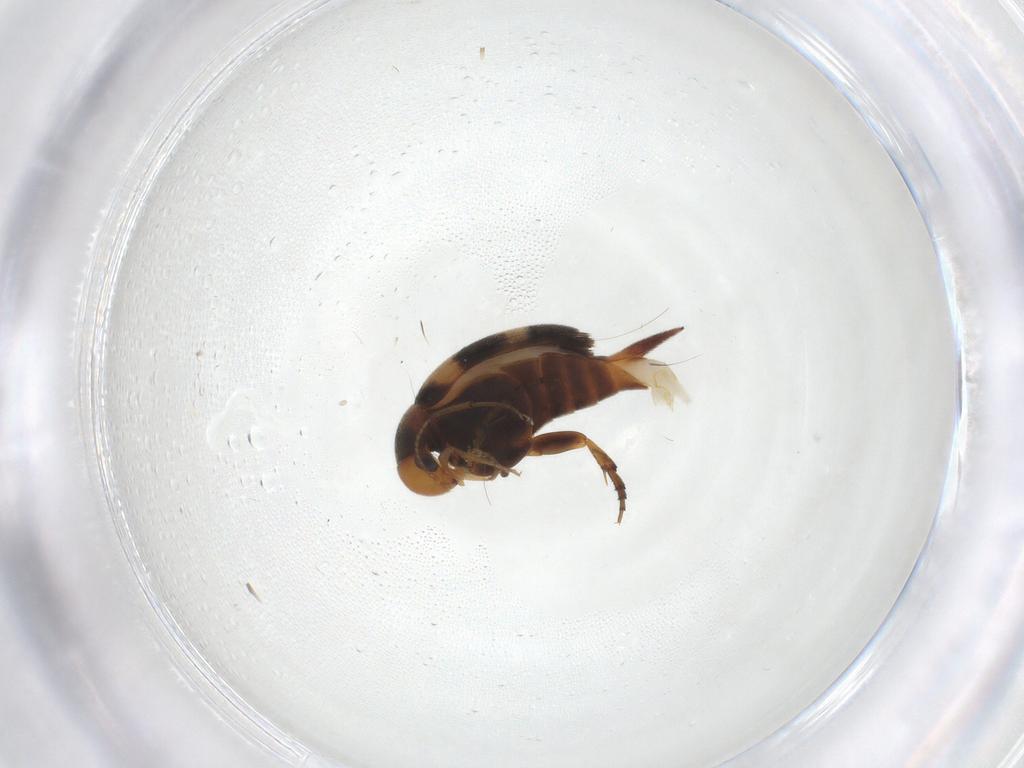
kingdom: Animalia
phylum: Arthropoda
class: Insecta
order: Coleoptera
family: Mordellidae
